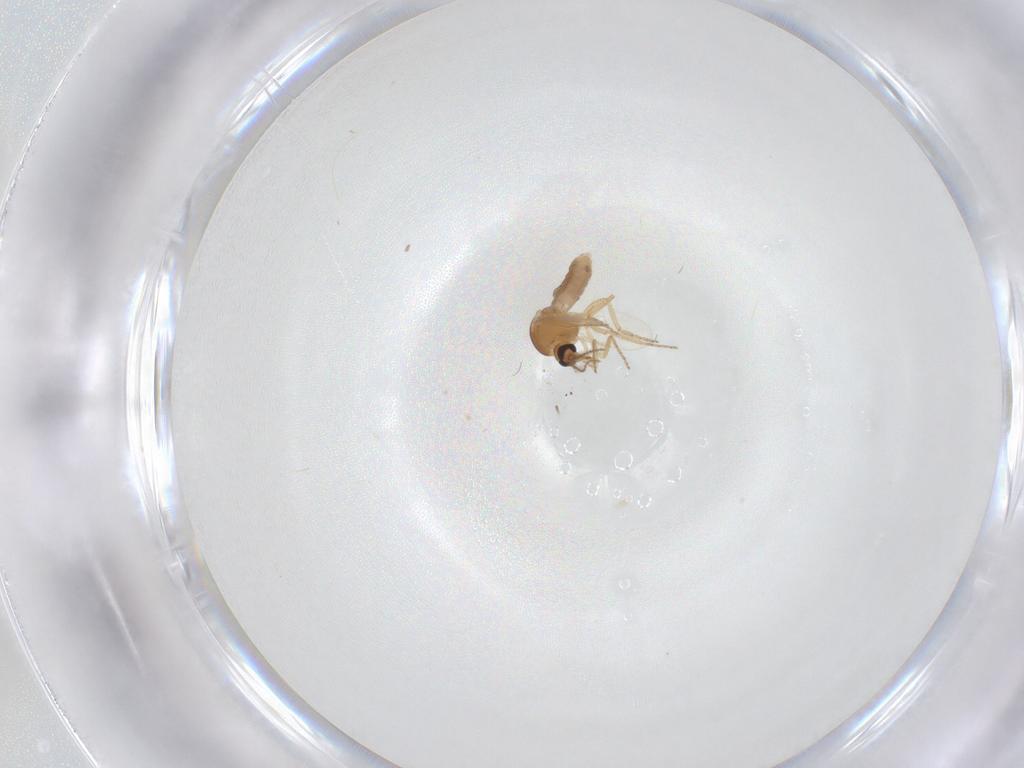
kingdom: Animalia
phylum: Arthropoda
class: Insecta
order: Diptera
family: Ceratopogonidae
